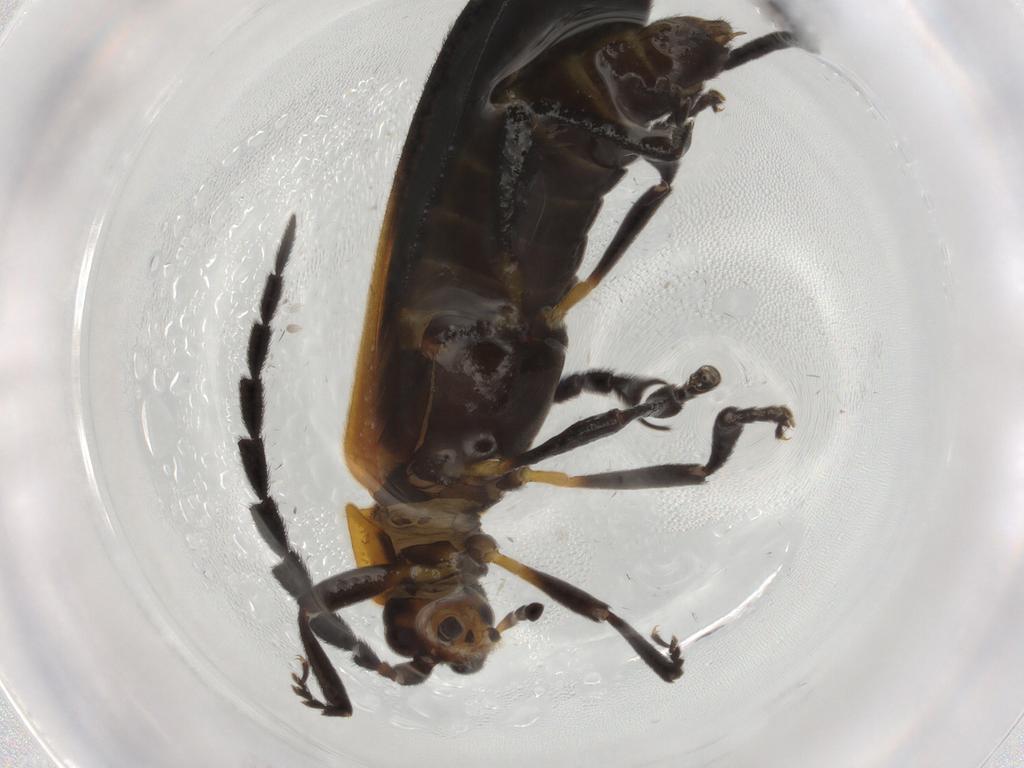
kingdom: Animalia
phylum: Arthropoda
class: Insecta
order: Coleoptera
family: Lycidae
